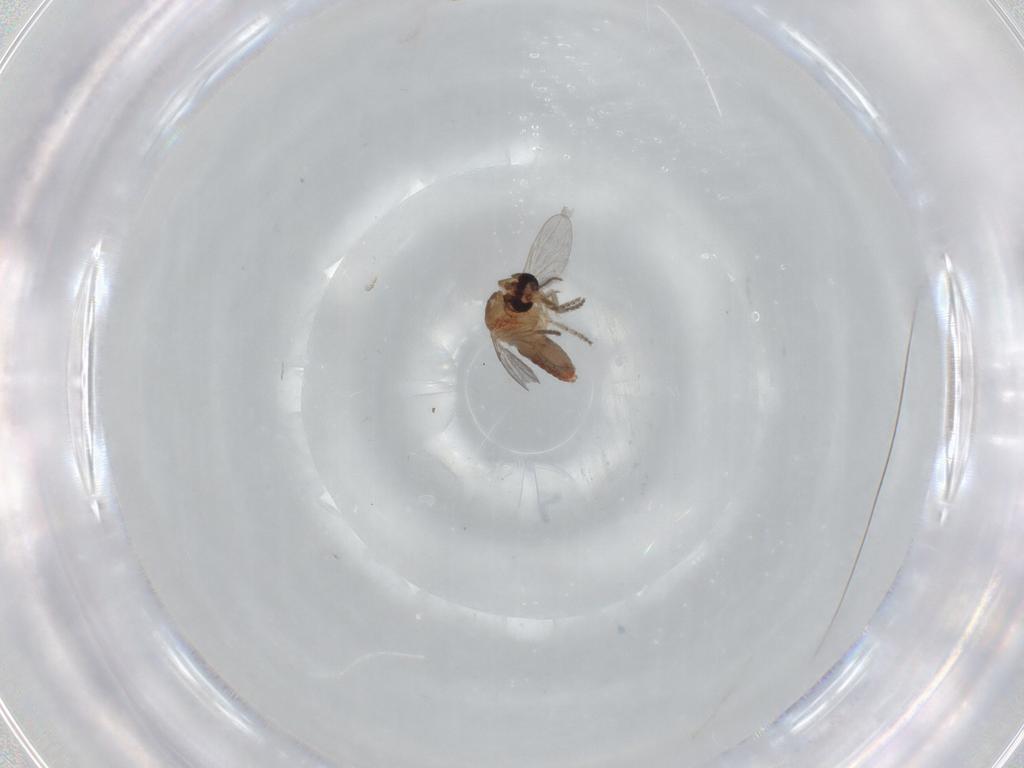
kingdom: Animalia
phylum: Arthropoda
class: Insecta
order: Diptera
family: Ceratopogonidae
